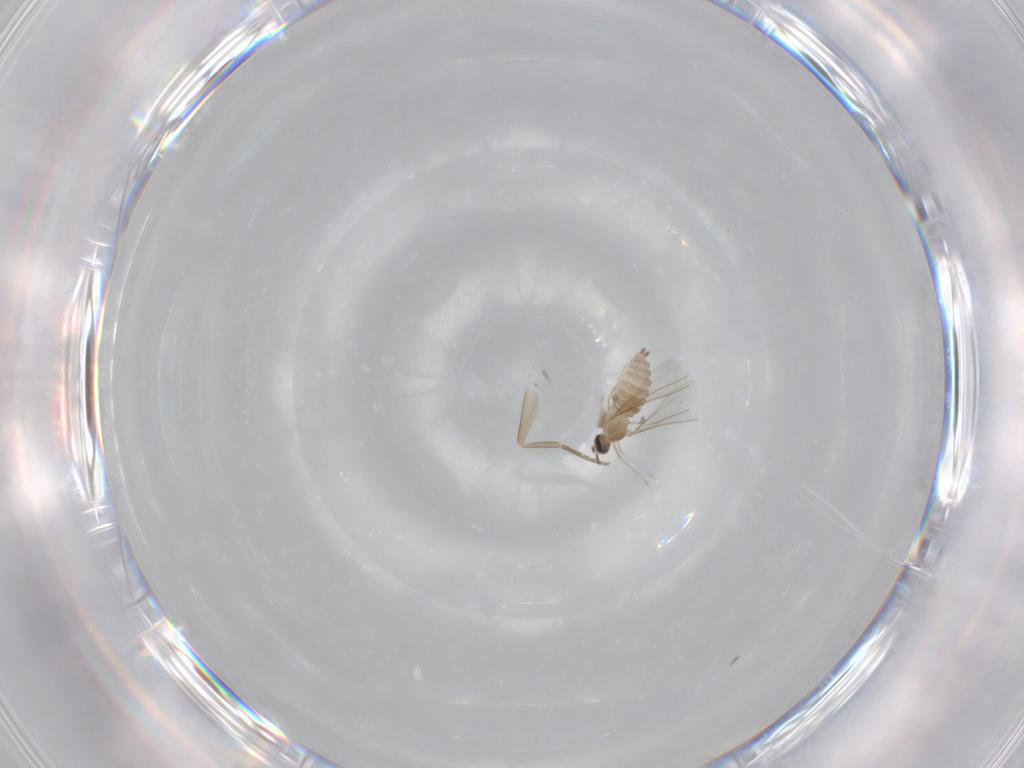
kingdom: Animalia
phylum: Arthropoda
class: Insecta
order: Diptera
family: Cecidomyiidae
